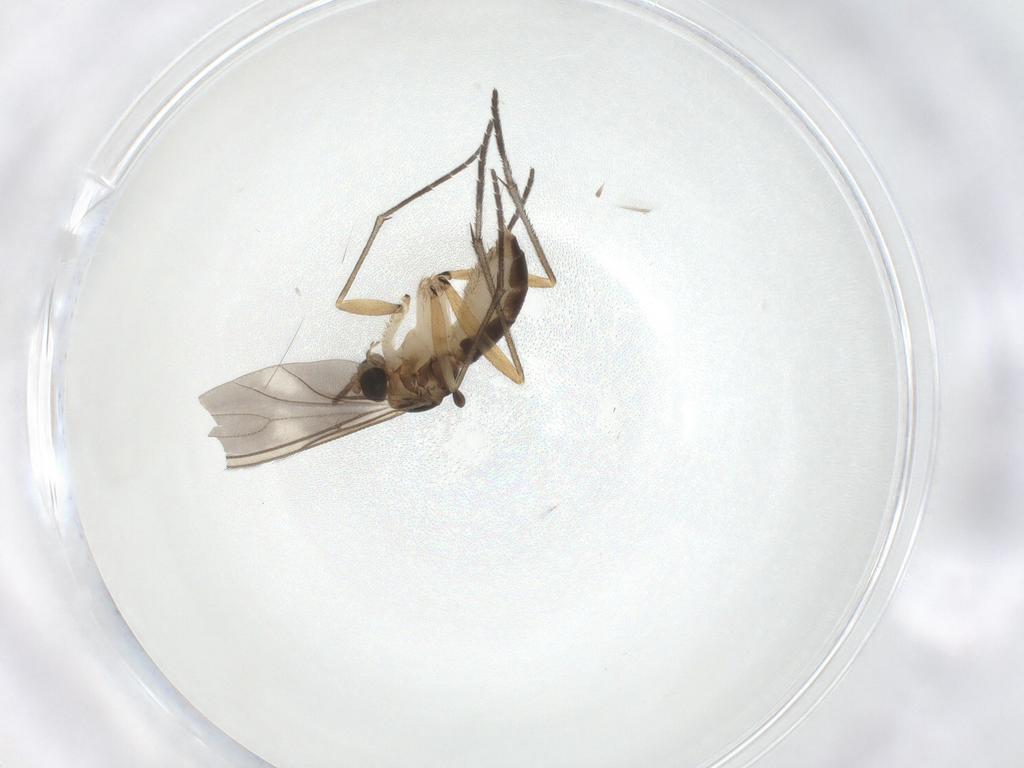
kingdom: Animalia
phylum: Arthropoda
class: Insecta
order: Diptera
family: Sciaridae
